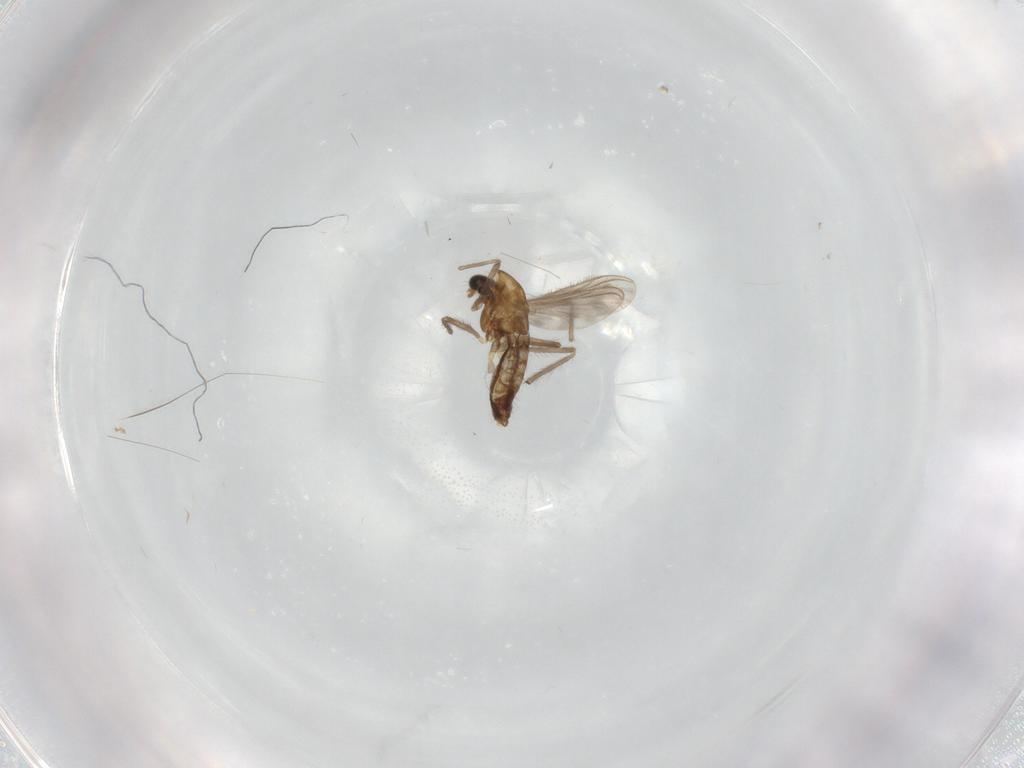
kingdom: Animalia
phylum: Arthropoda
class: Insecta
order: Diptera
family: Chironomidae
